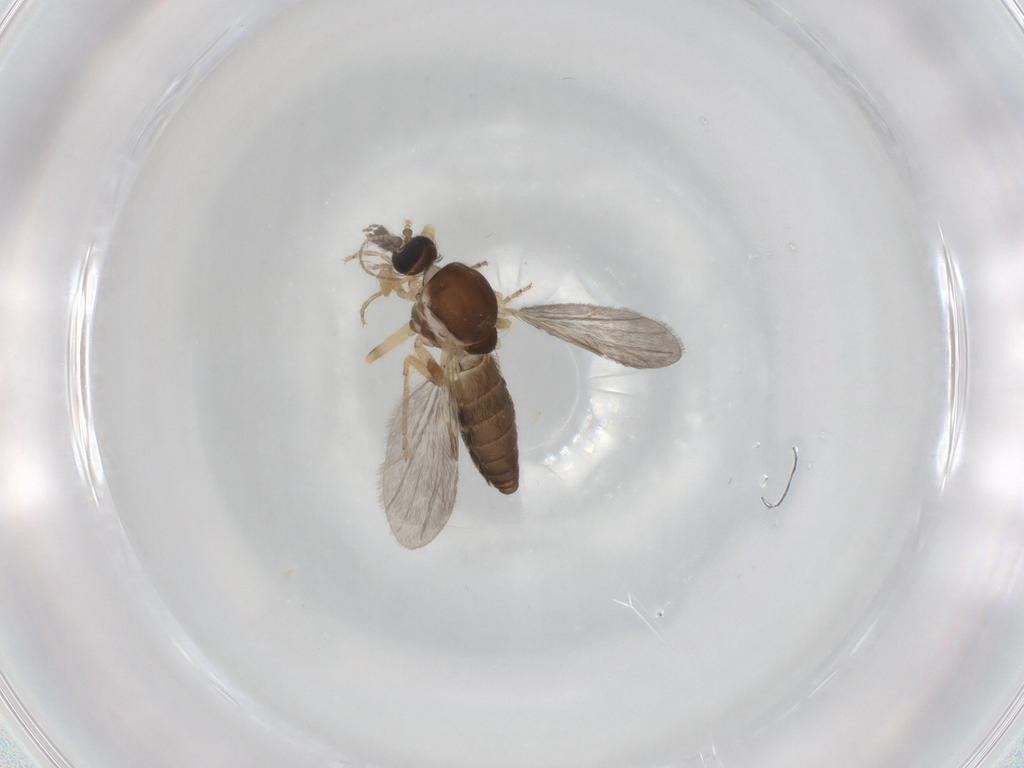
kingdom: Animalia
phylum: Arthropoda
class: Insecta
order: Diptera
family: Ceratopogonidae
